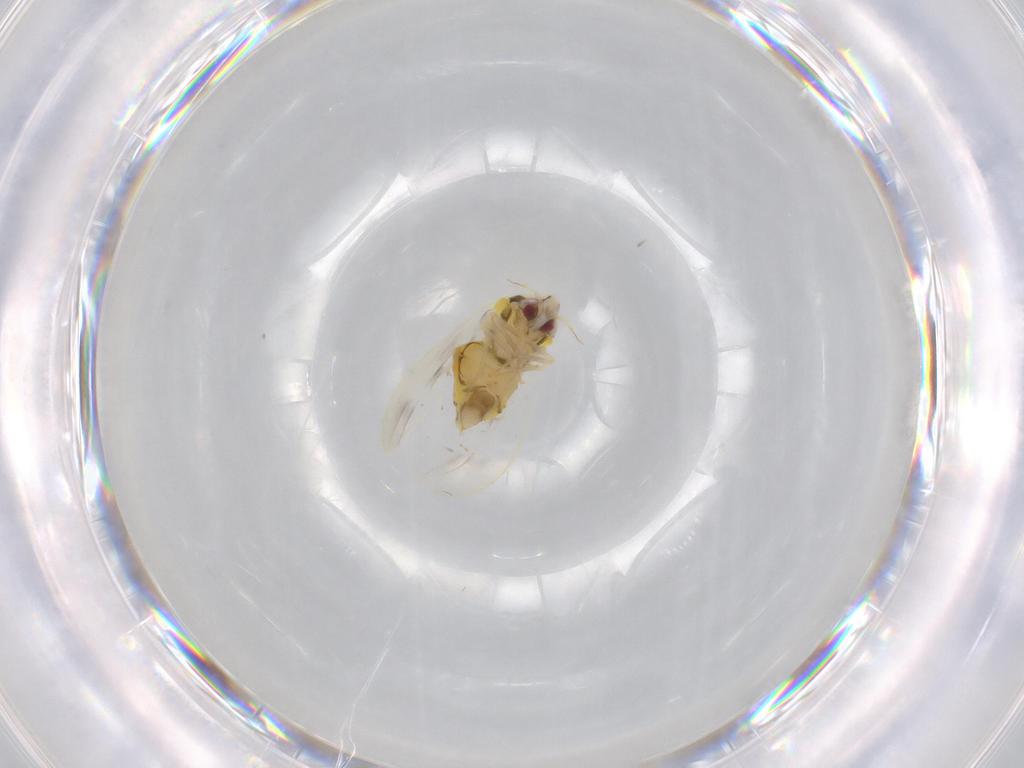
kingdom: Animalia
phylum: Arthropoda
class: Insecta
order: Hemiptera
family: Aleyrodidae
